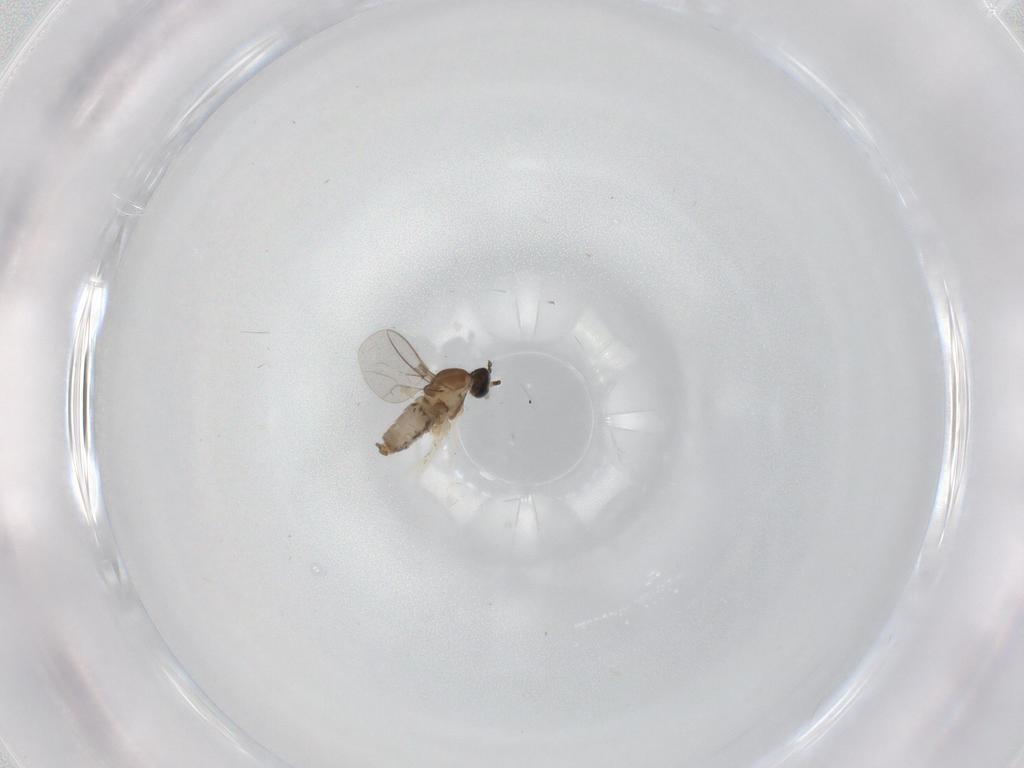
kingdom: Animalia
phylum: Arthropoda
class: Insecta
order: Diptera
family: Cecidomyiidae
